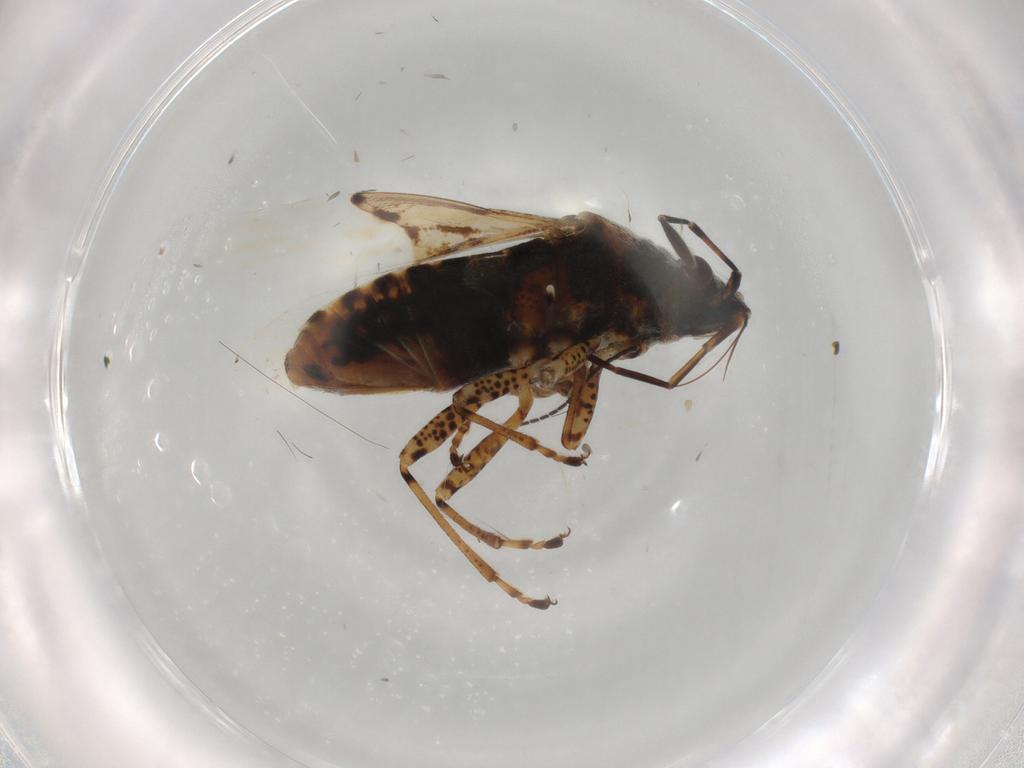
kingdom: Animalia
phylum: Arthropoda
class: Insecta
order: Hemiptera
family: Lygaeidae
